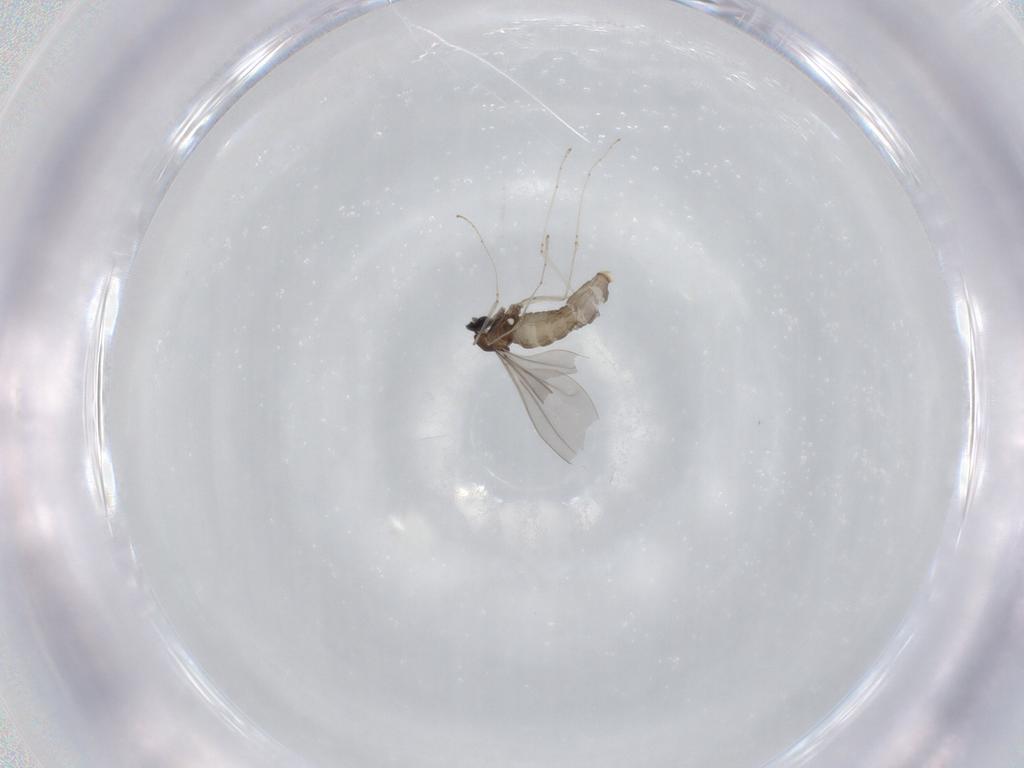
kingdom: Animalia
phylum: Arthropoda
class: Insecta
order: Diptera
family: Cecidomyiidae
